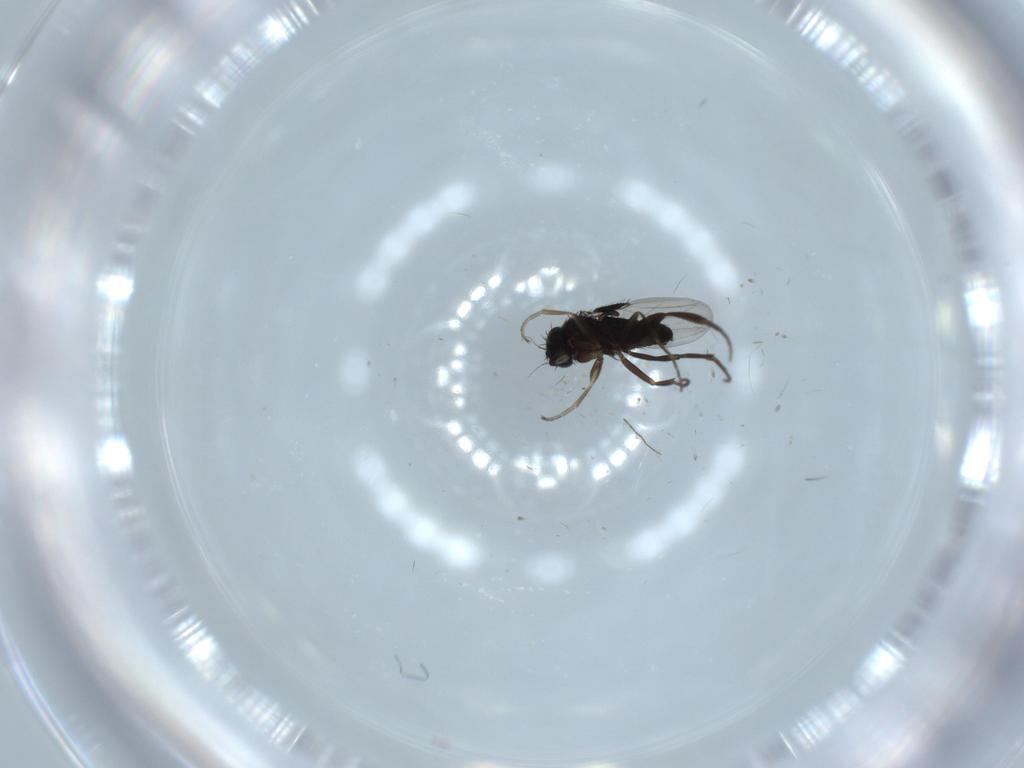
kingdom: Animalia
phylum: Arthropoda
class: Insecta
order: Diptera
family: Phoridae
